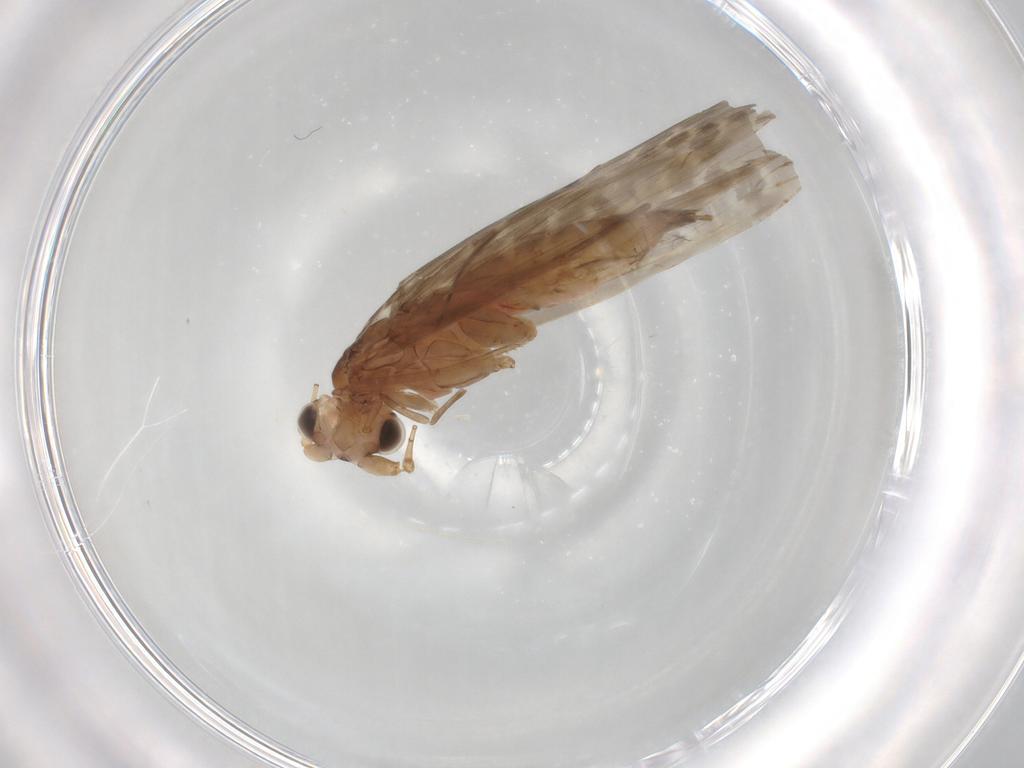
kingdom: Animalia
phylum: Arthropoda
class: Insecta
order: Trichoptera
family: Leptoceridae
